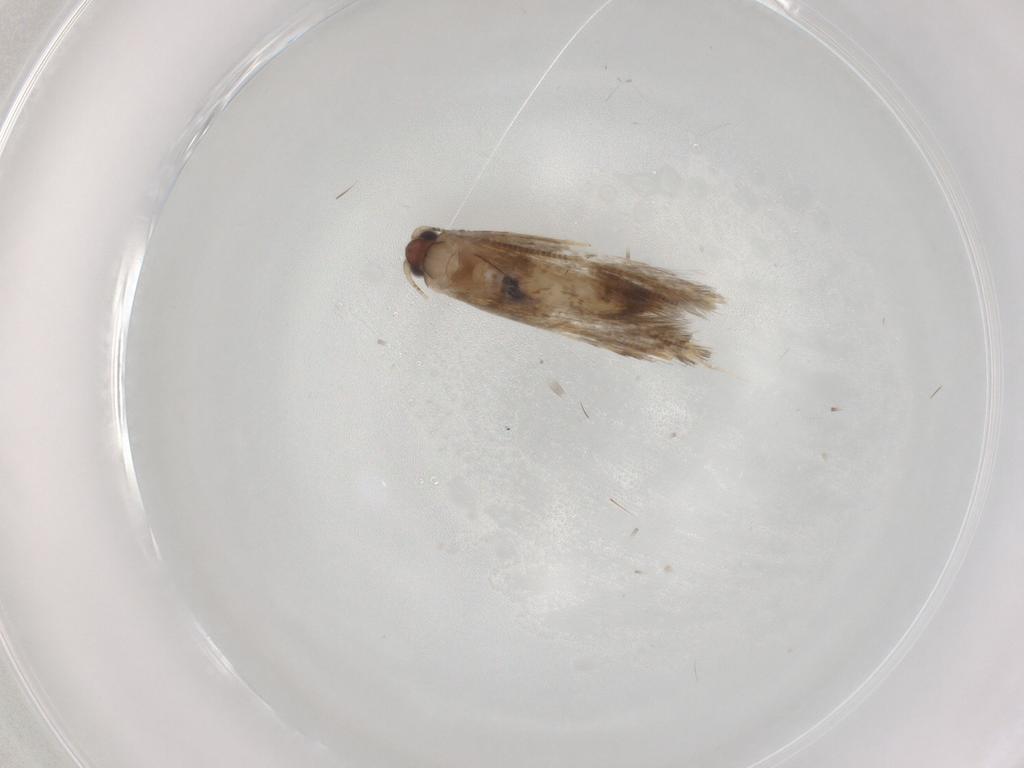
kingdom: Animalia
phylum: Arthropoda
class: Insecta
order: Lepidoptera
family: Tineidae
